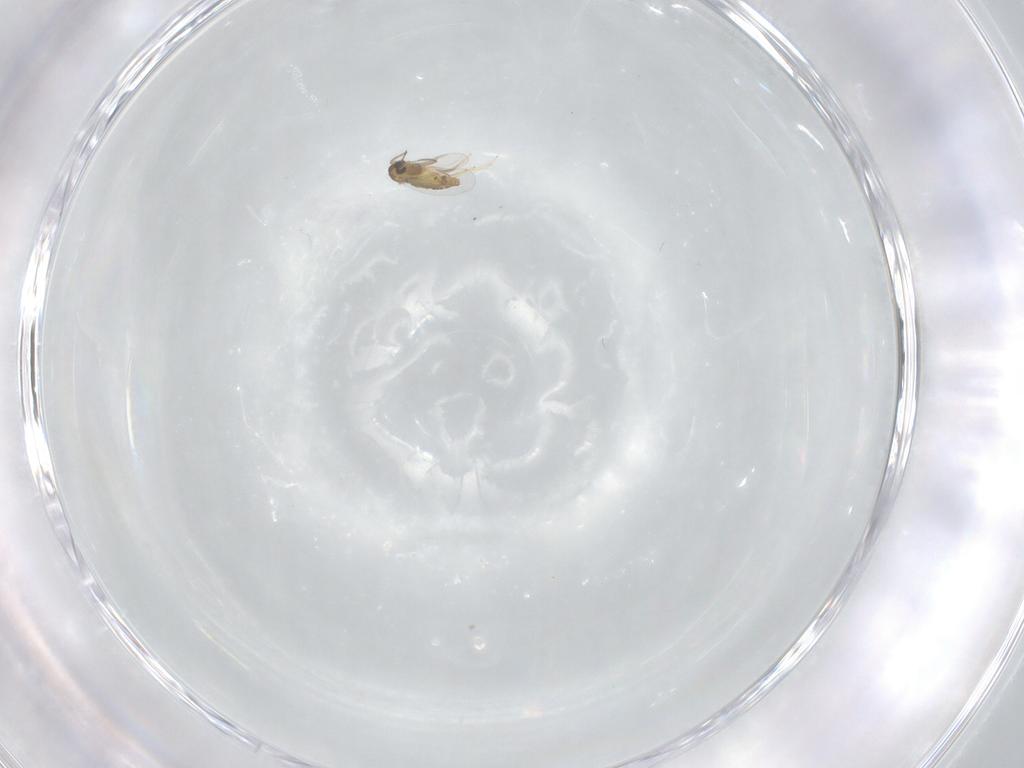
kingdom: Animalia
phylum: Arthropoda
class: Insecta
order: Diptera
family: Chironomidae
